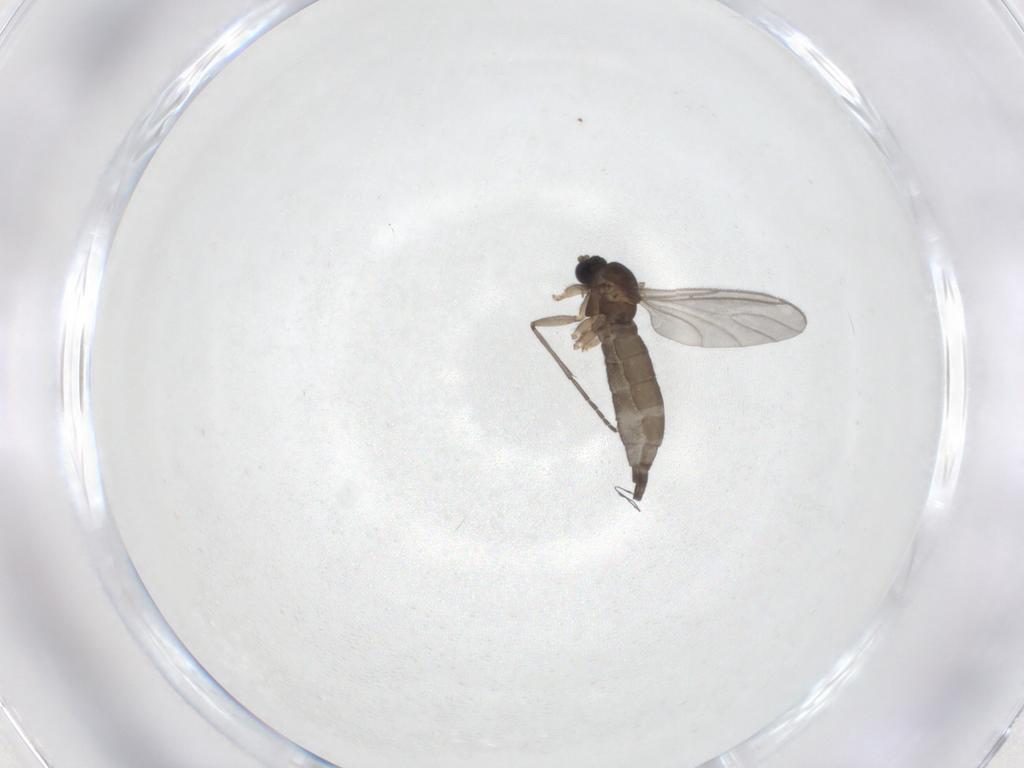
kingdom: Animalia
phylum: Arthropoda
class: Insecta
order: Diptera
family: Sciaridae
